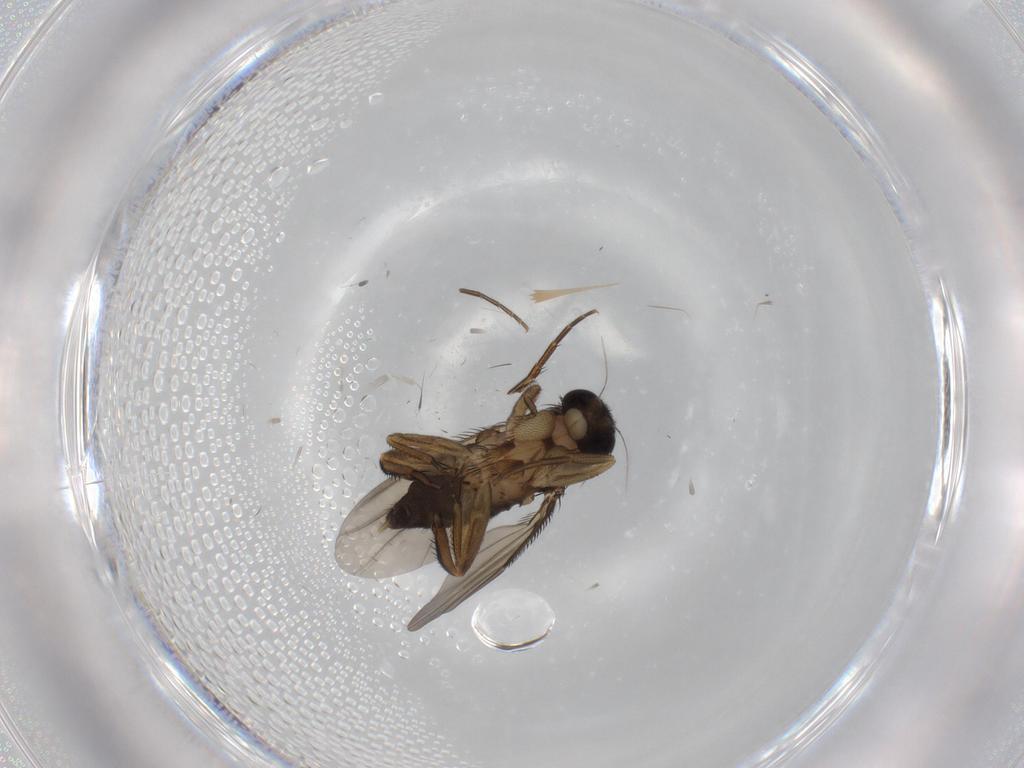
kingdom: Animalia
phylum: Arthropoda
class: Insecta
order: Diptera
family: Phoridae
